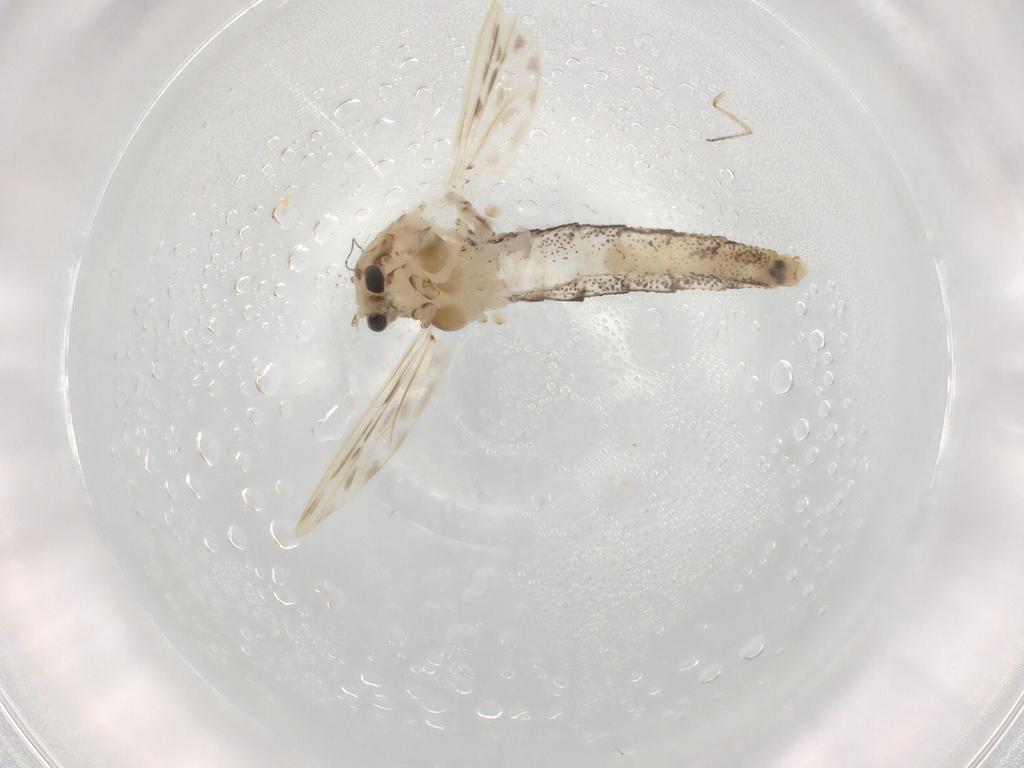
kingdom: Animalia
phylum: Arthropoda
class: Insecta
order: Diptera
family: Chaoboridae
